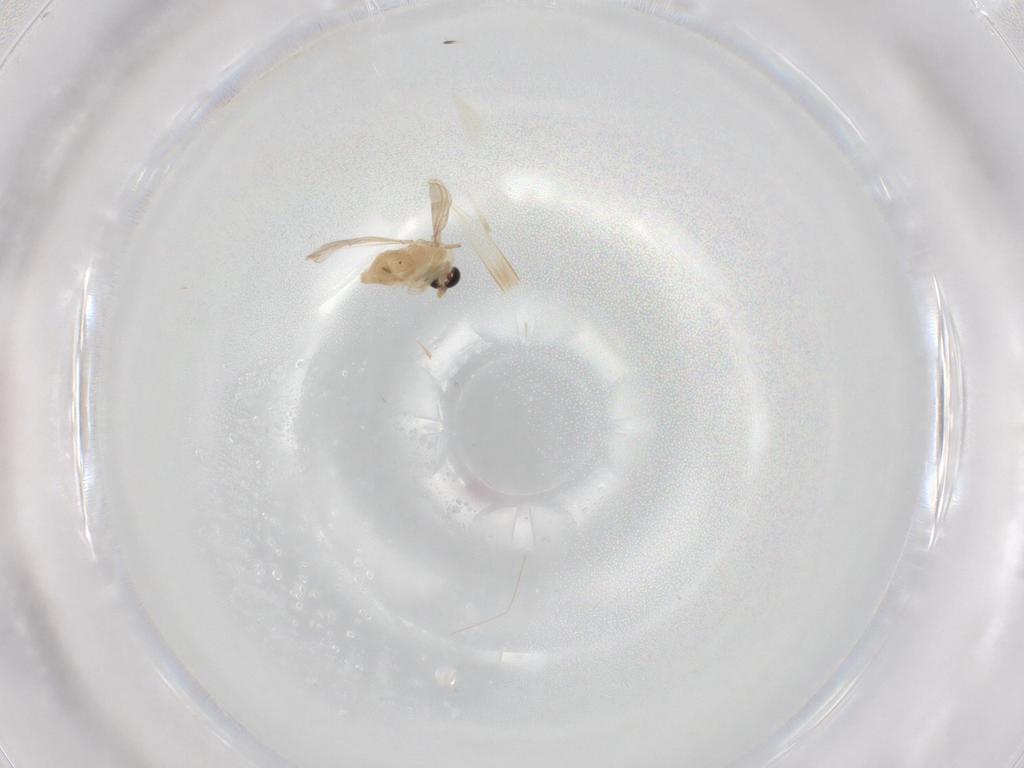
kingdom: Animalia
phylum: Arthropoda
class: Insecta
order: Diptera
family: Chironomidae
